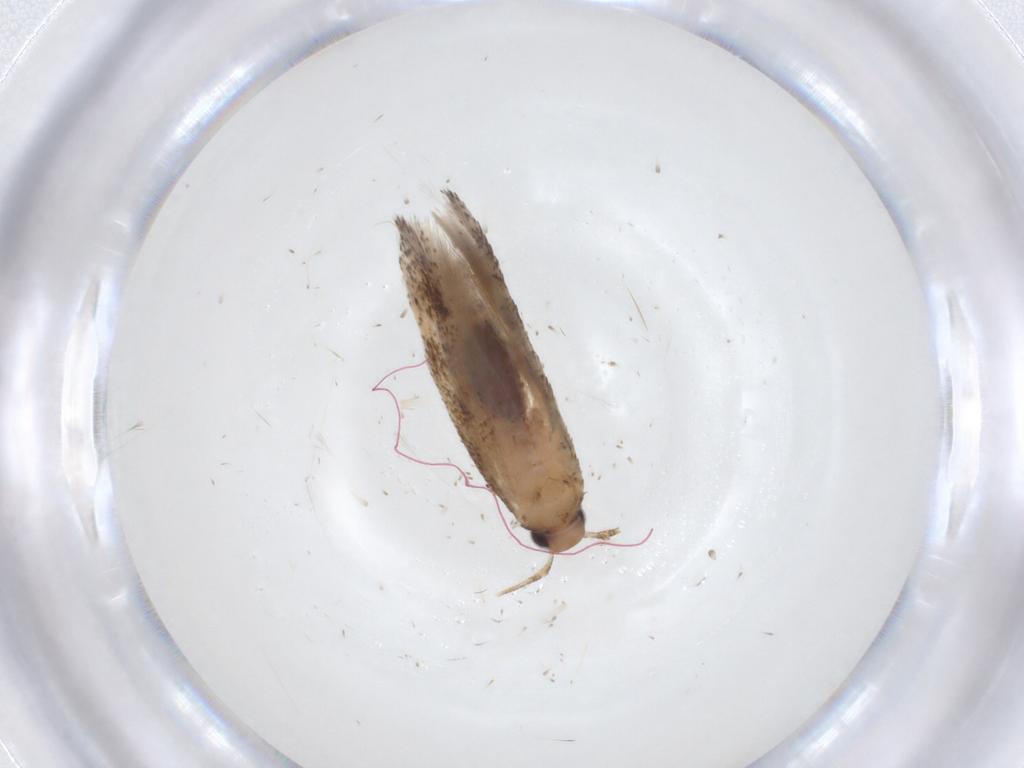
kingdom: Animalia
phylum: Arthropoda
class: Insecta
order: Lepidoptera
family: Gelechiidae
